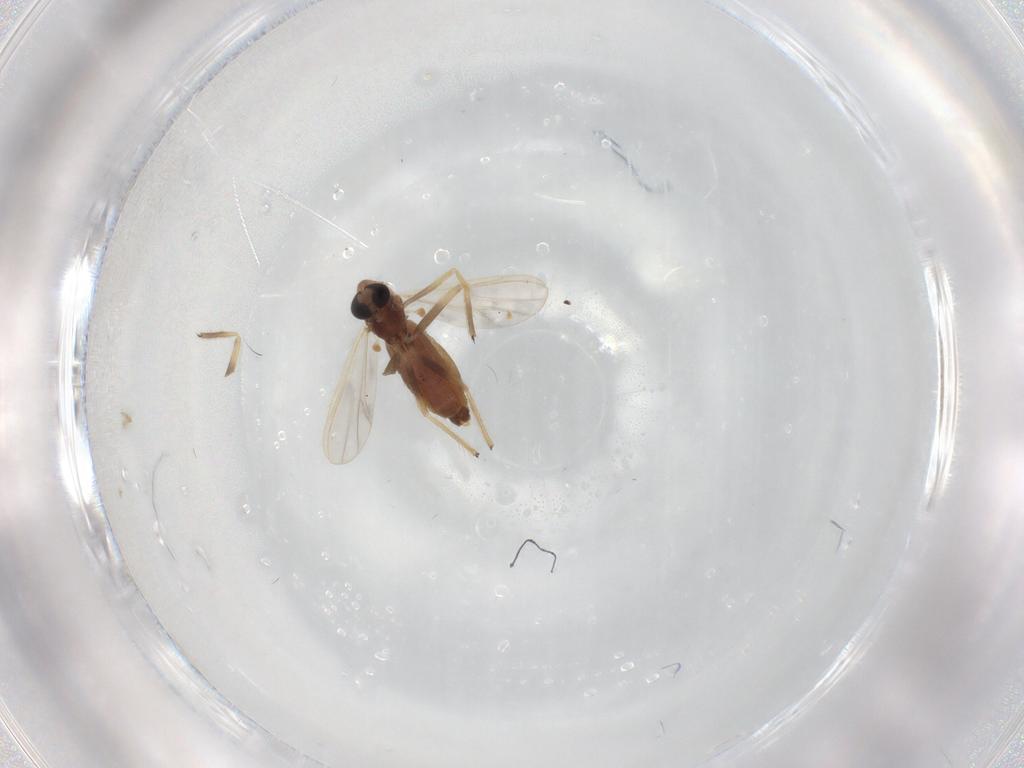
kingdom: Animalia
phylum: Arthropoda
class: Insecta
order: Diptera
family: Chironomidae
